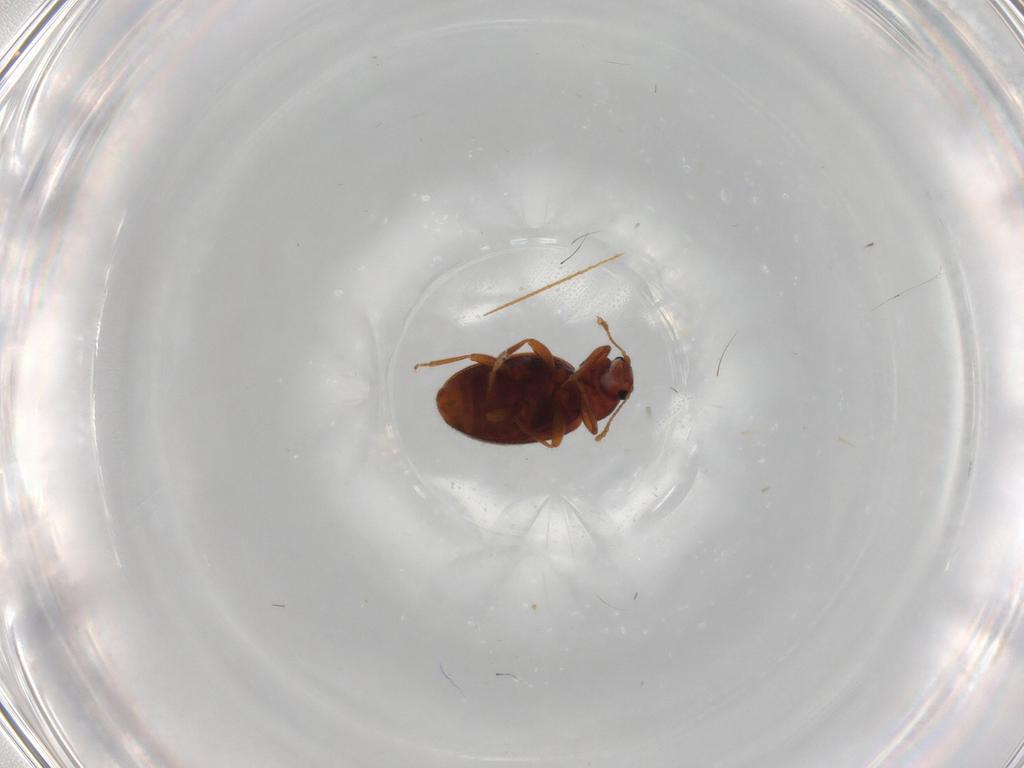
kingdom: Animalia
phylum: Arthropoda
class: Insecta
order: Coleoptera
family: Latridiidae
